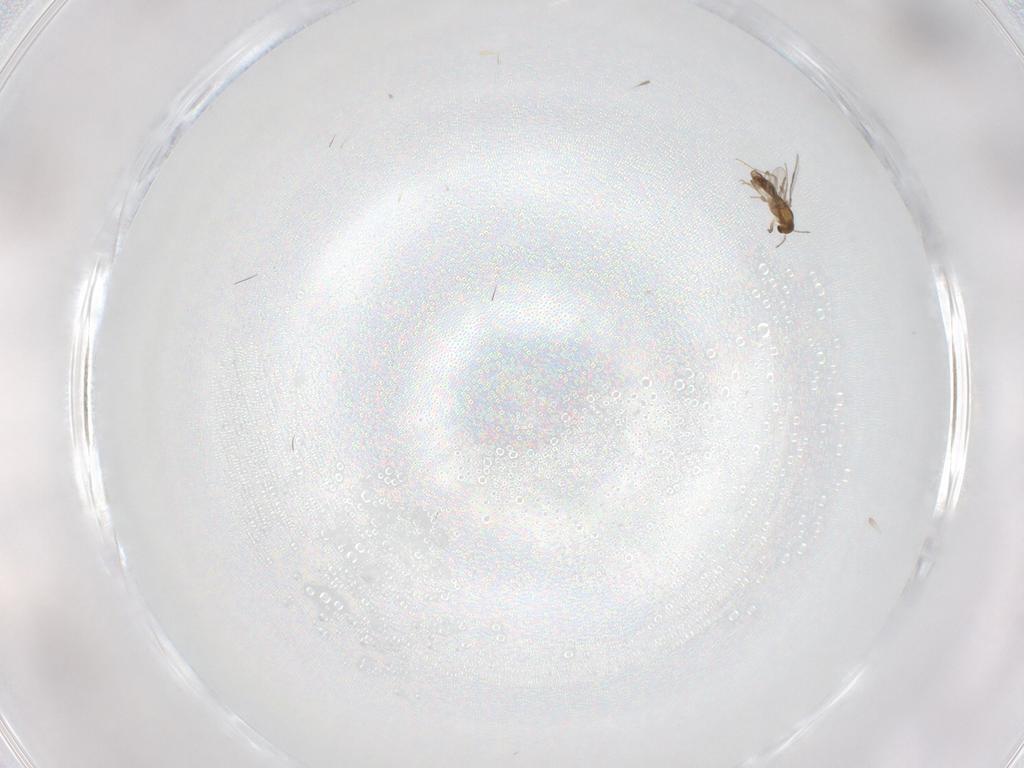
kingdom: Animalia
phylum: Arthropoda
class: Insecta
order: Diptera
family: Chironomidae
